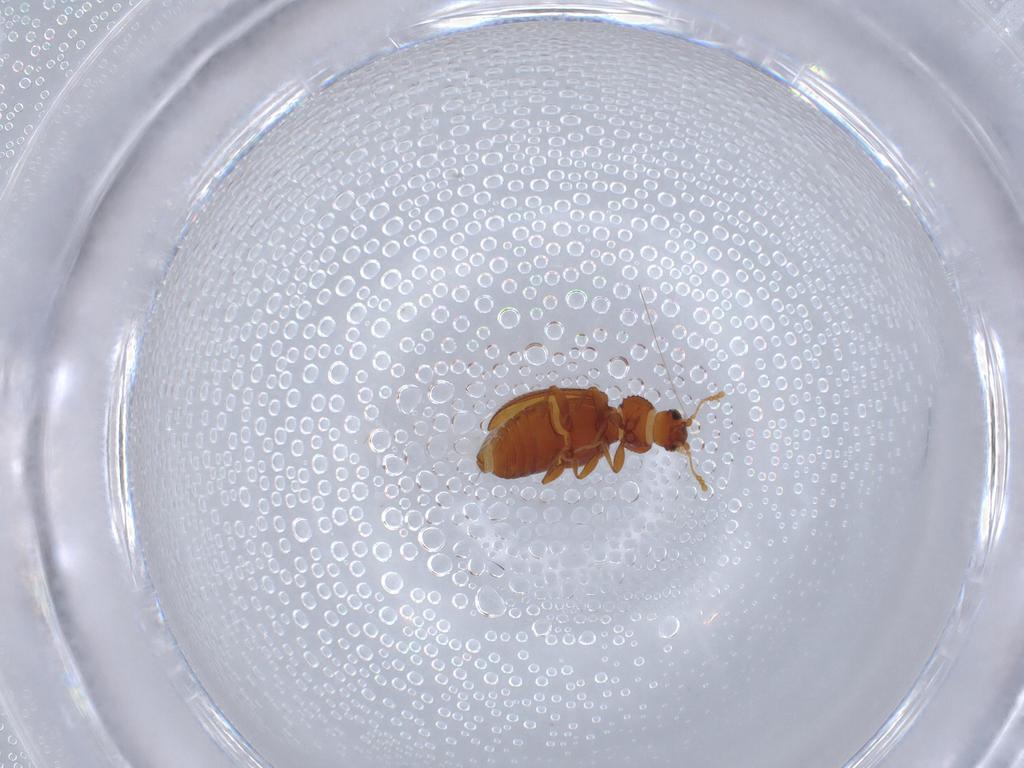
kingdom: Animalia
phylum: Arthropoda
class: Insecta
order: Coleoptera
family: Latridiidae
